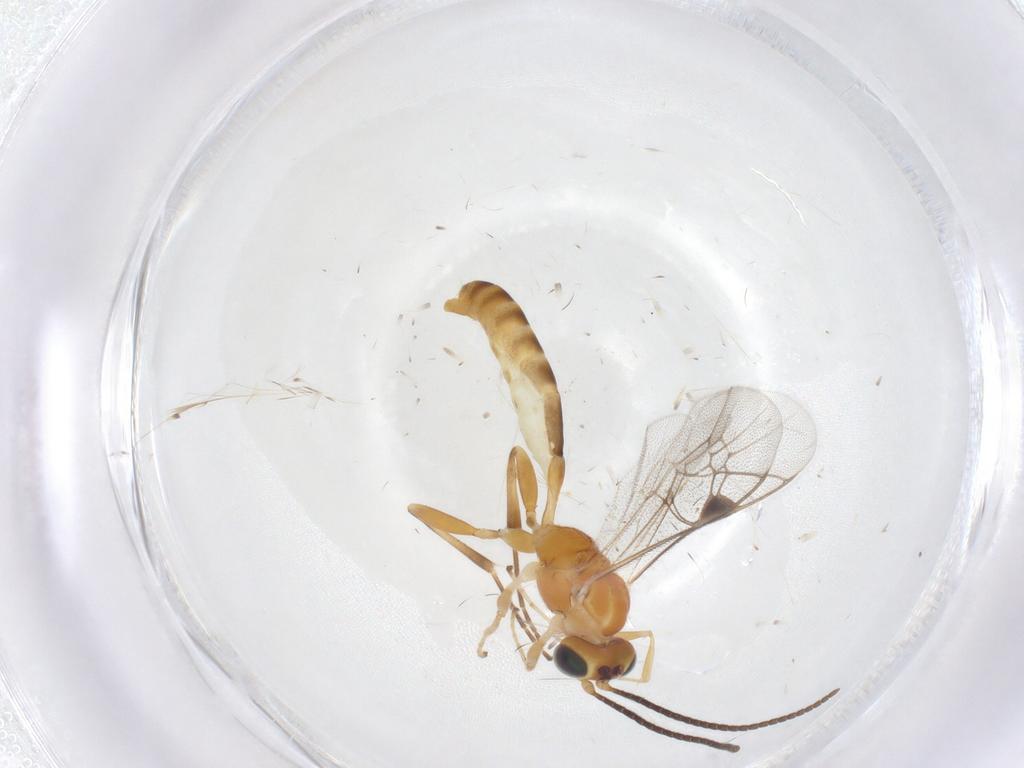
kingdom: Animalia
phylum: Arthropoda
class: Insecta
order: Hymenoptera
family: Ichneumonidae
